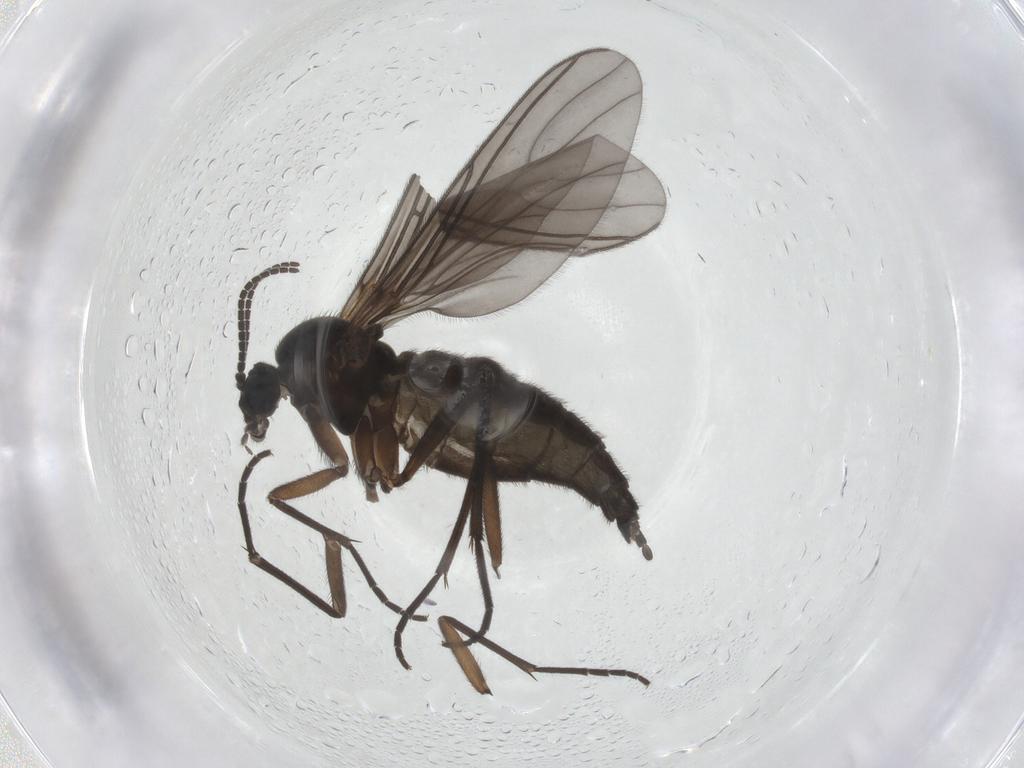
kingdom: Animalia
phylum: Arthropoda
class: Insecta
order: Diptera
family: Sciaridae
